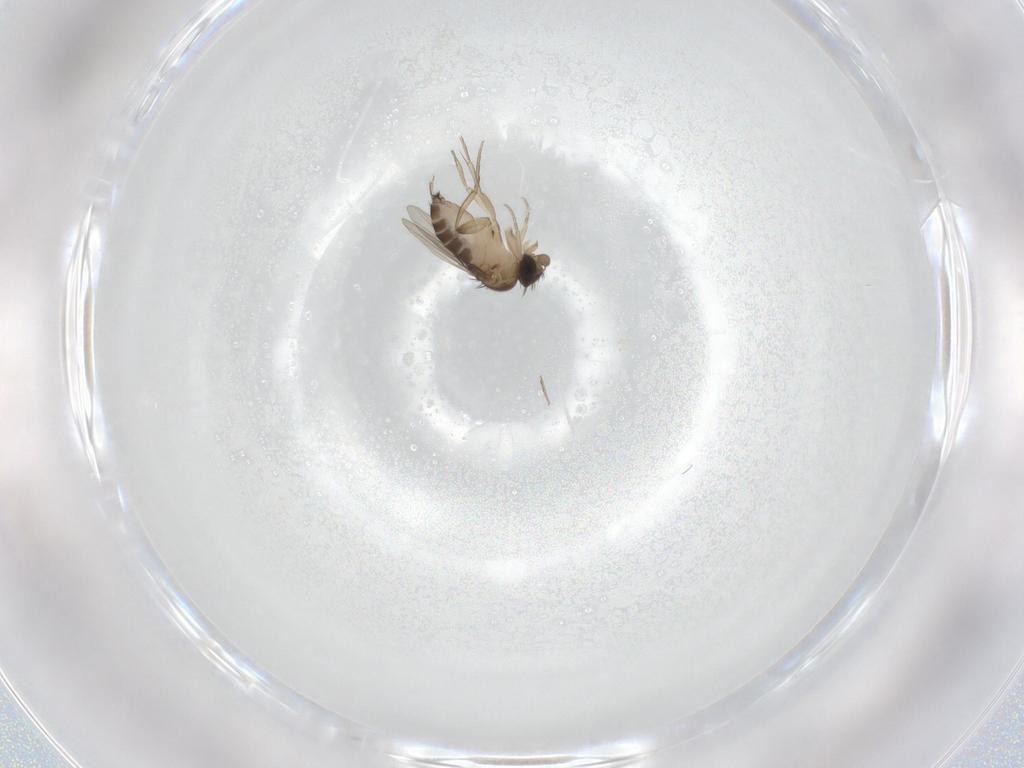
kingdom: Animalia
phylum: Arthropoda
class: Insecta
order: Diptera
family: Phoridae
